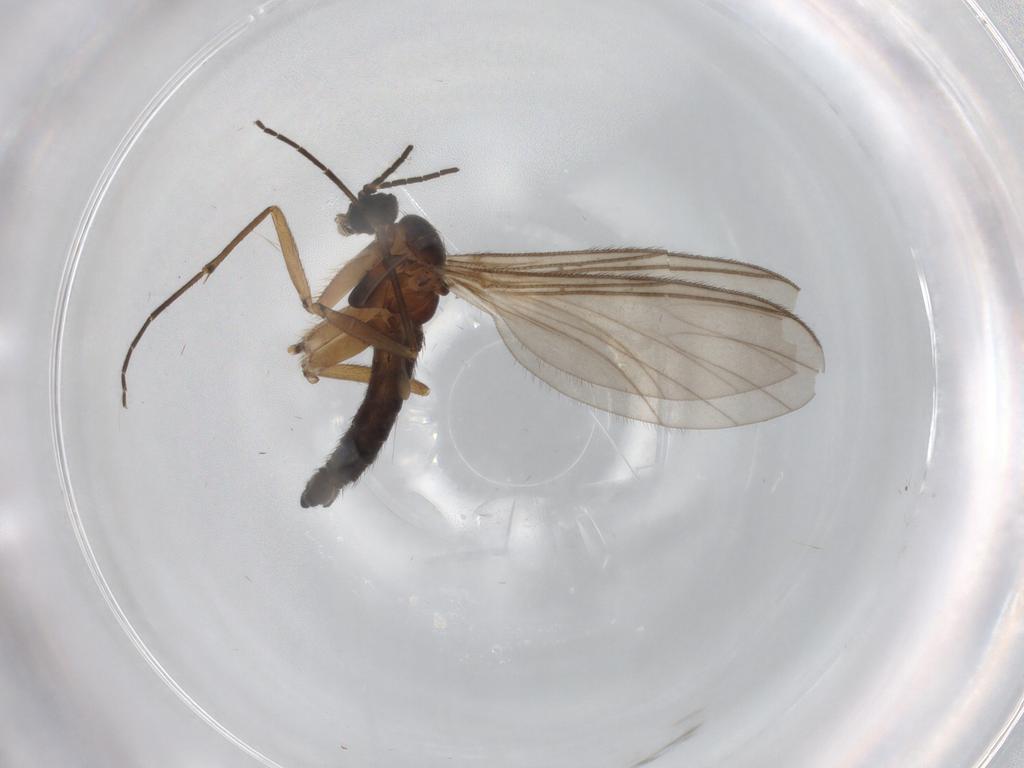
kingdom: Animalia
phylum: Arthropoda
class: Insecta
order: Diptera
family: Sciaridae
